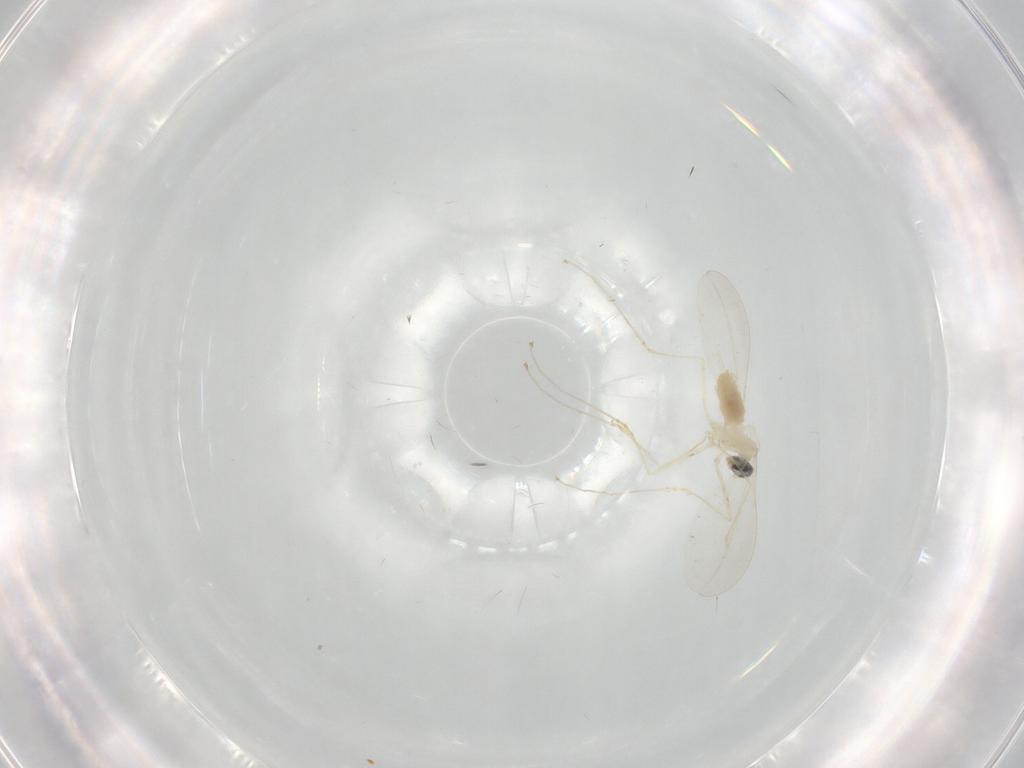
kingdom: Animalia
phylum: Arthropoda
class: Insecta
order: Diptera
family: Cecidomyiidae
